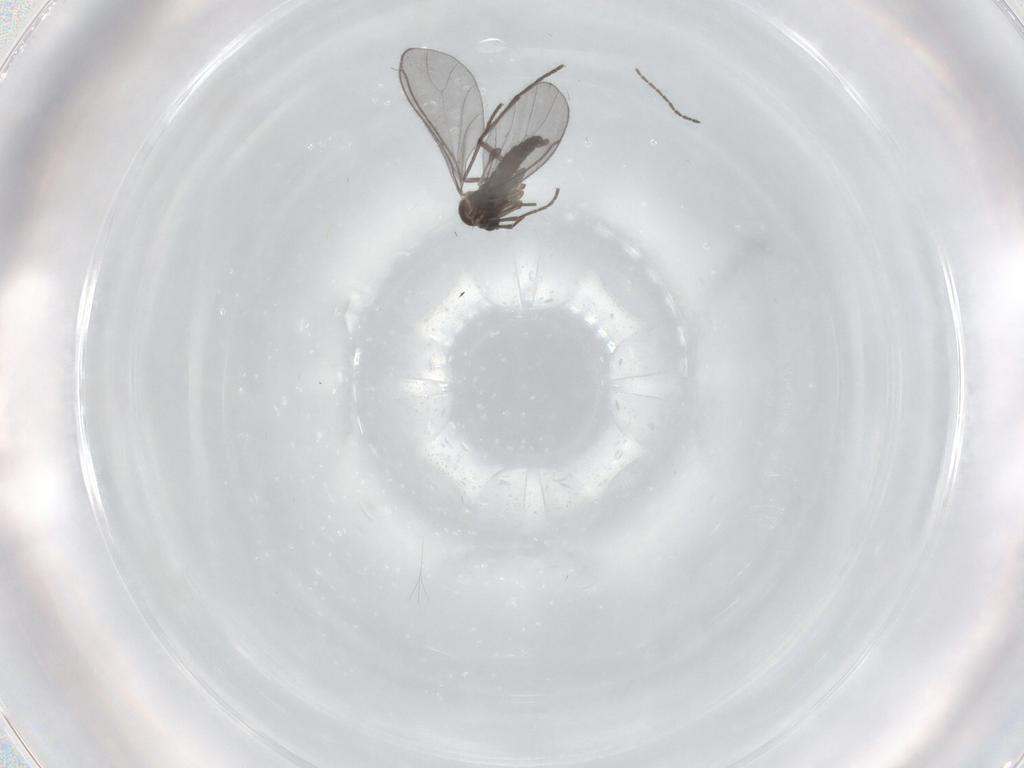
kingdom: Animalia
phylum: Arthropoda
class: Insecta
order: Diptera
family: Sciaridae
